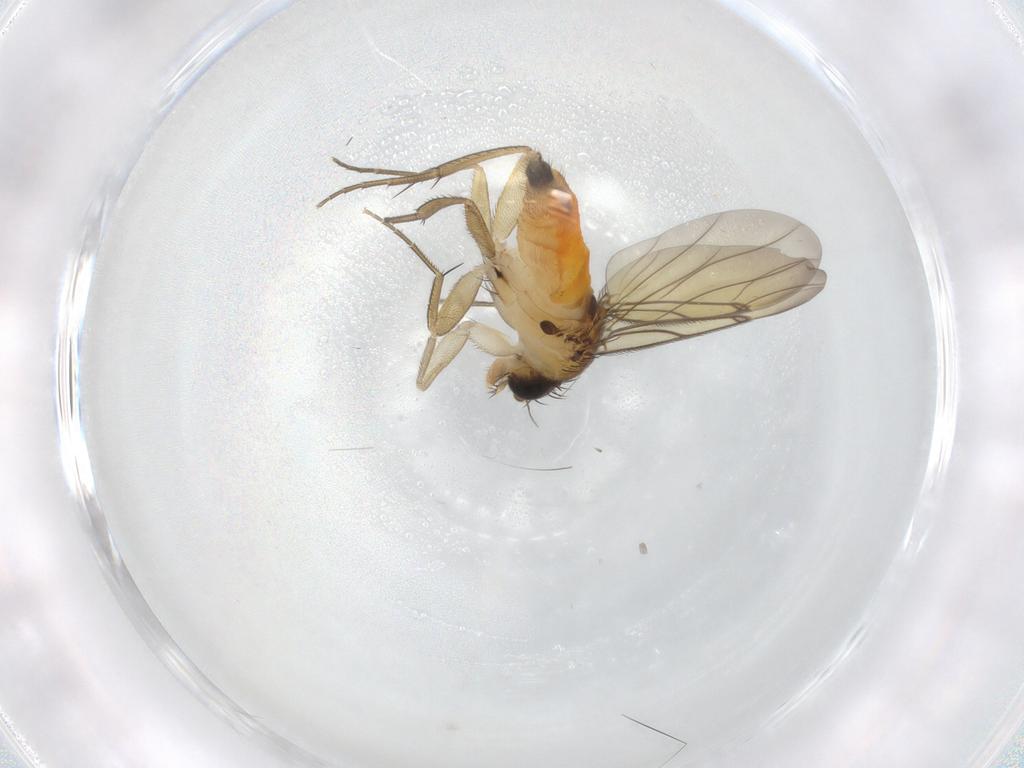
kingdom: Animalia
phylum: Arthropoda
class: Insecta
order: Diptera
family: Phoridae
